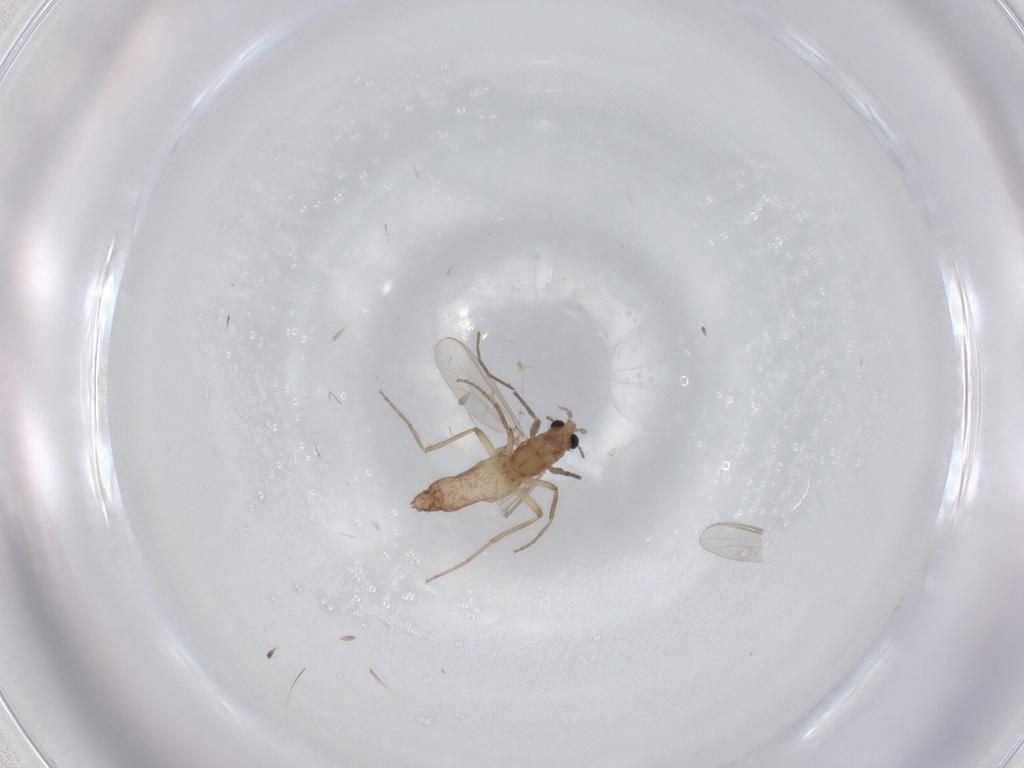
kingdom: Animalia
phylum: Arthropoda
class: Insecta
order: Diptera
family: Chironomidae
